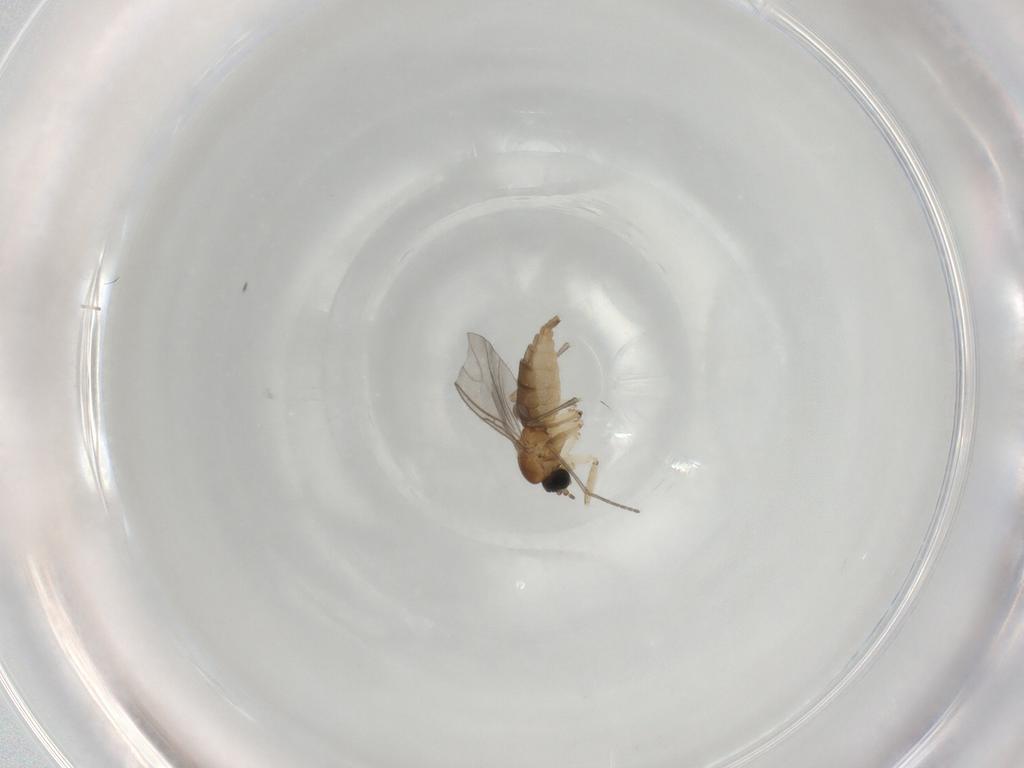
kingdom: Animalia
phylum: Arthropoda
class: Insecta
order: Diptera
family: Sciaridae
